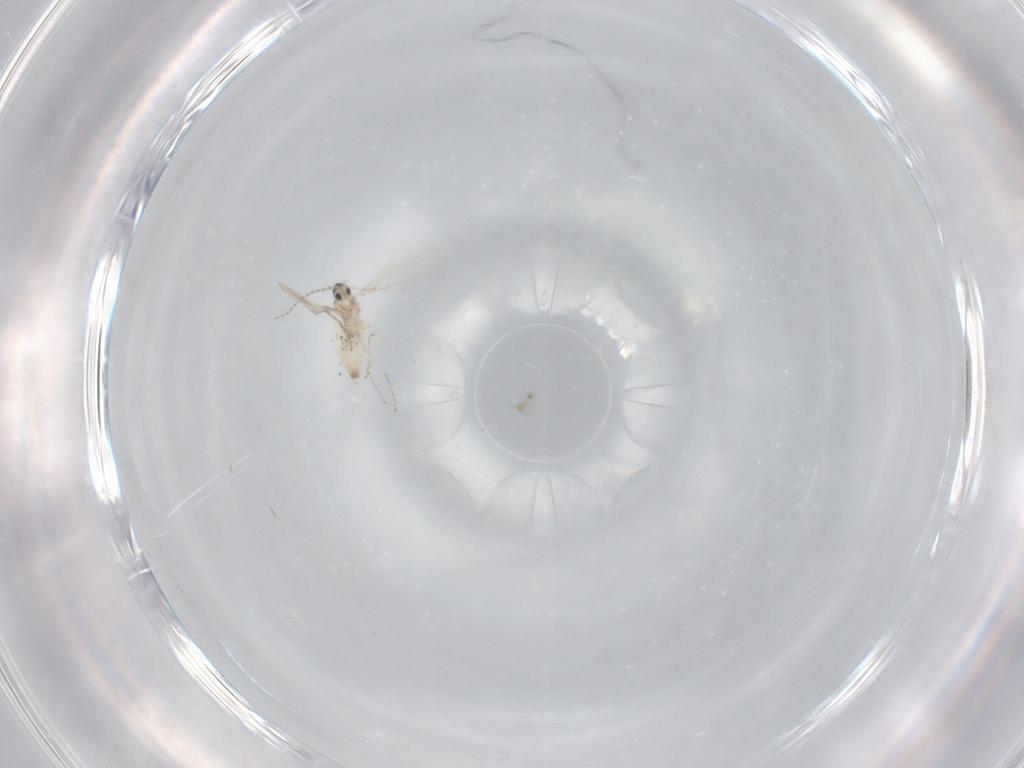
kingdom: Animalia
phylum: Arthropoda
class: Insecta
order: Diptera
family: Cecidomyiidae
